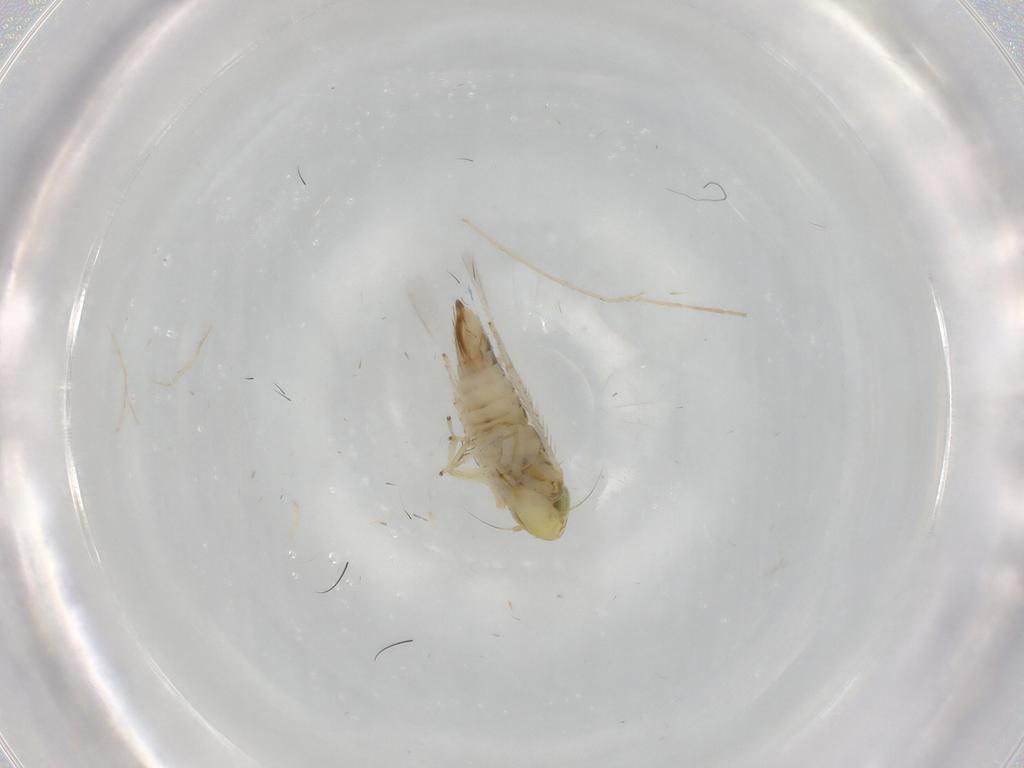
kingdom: Animalia
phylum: Arthropoda
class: Insecta
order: Hemiptera
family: Cicadellidae
